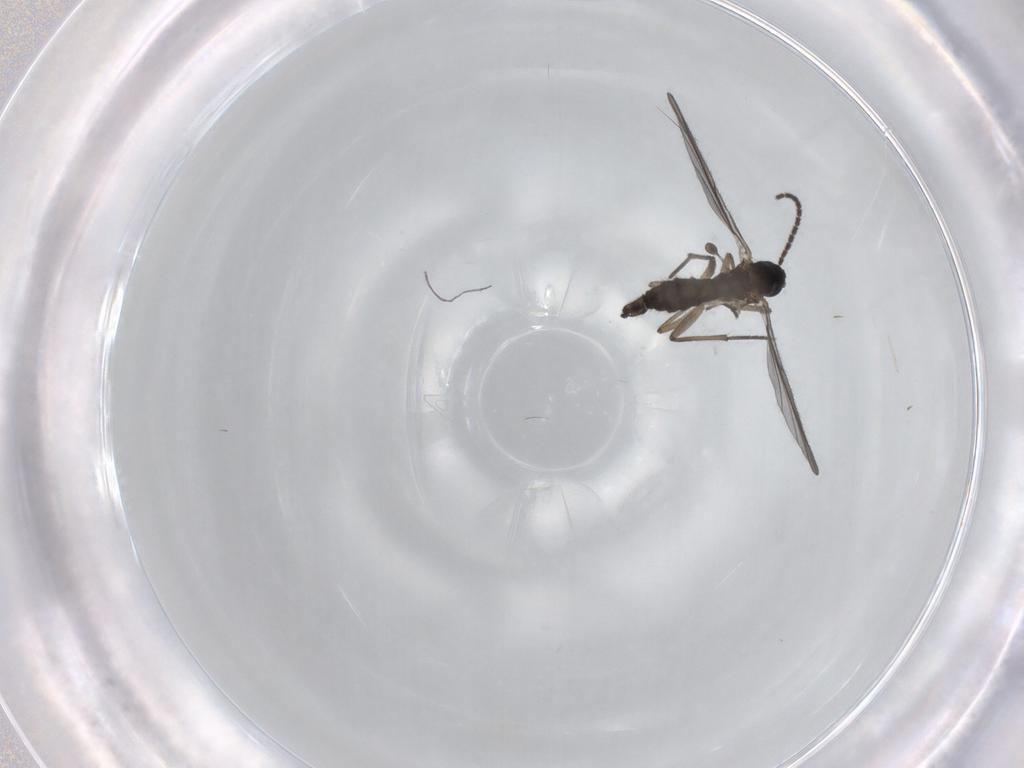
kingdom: Animalia
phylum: Arthropoda
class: Insecta
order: Diptera
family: Sciaridae
